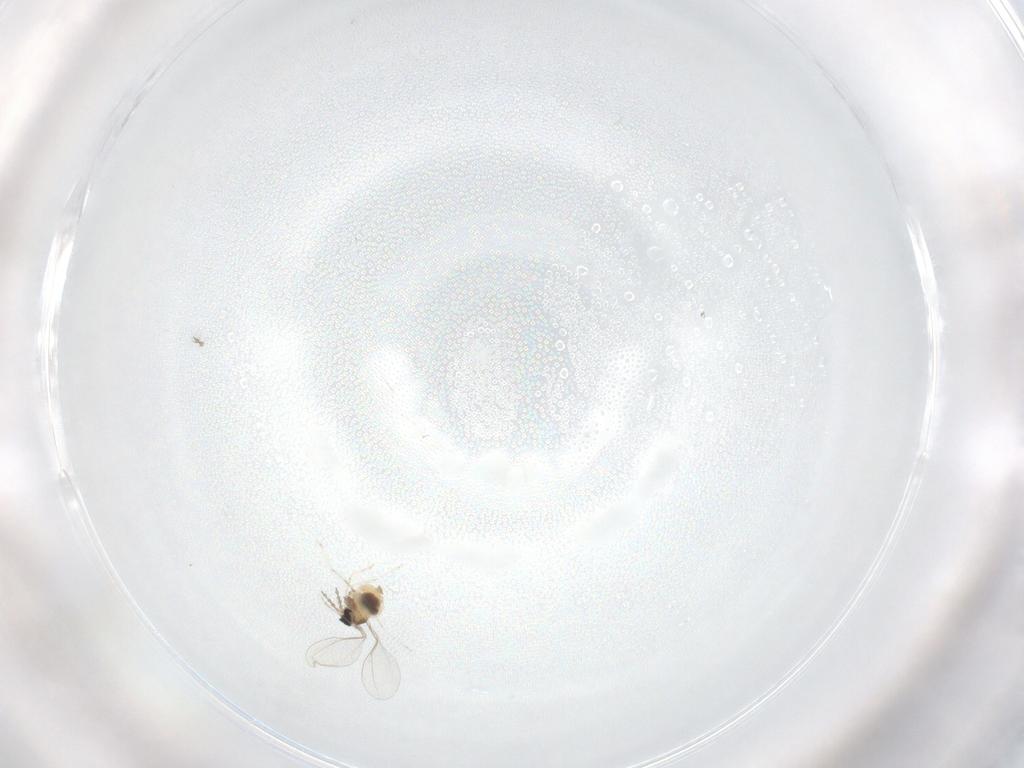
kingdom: Animalia
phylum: Arthropoda
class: Insecta
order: Diptera
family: Cecidomyiidae
